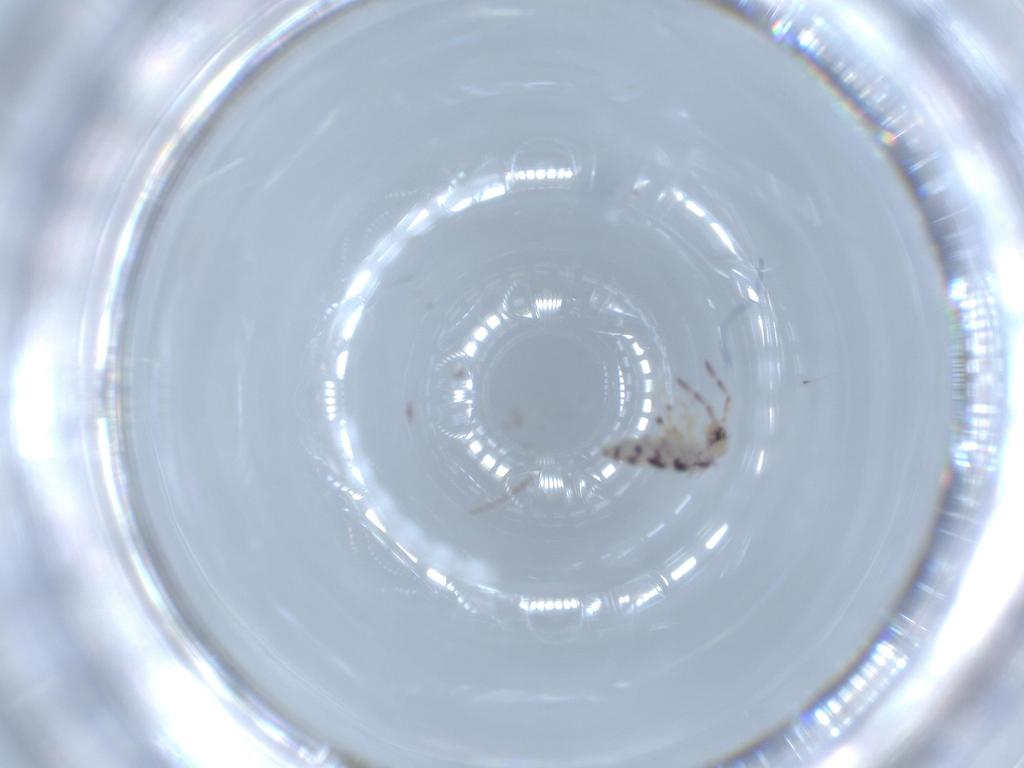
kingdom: Animalia
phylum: Arthropoda
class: Collembola
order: Entomobryomorpha
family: Entomobryidae
